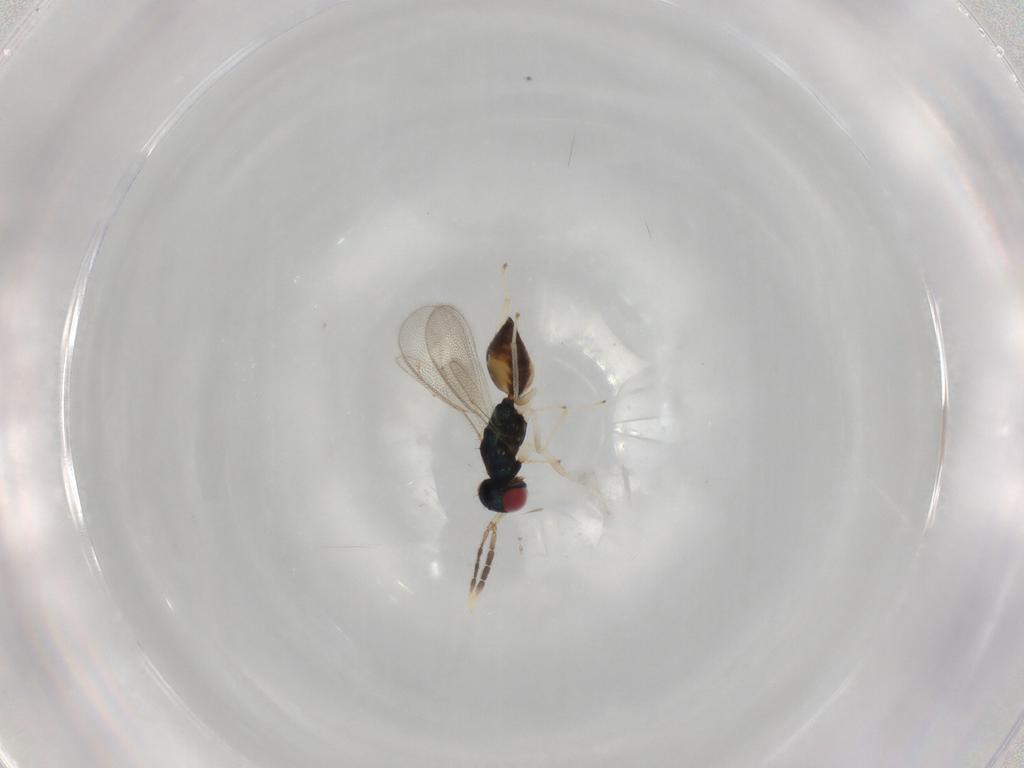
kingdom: Animalia
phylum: Arthropoda
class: Insecta
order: Hymenoptera
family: Eulophidae
